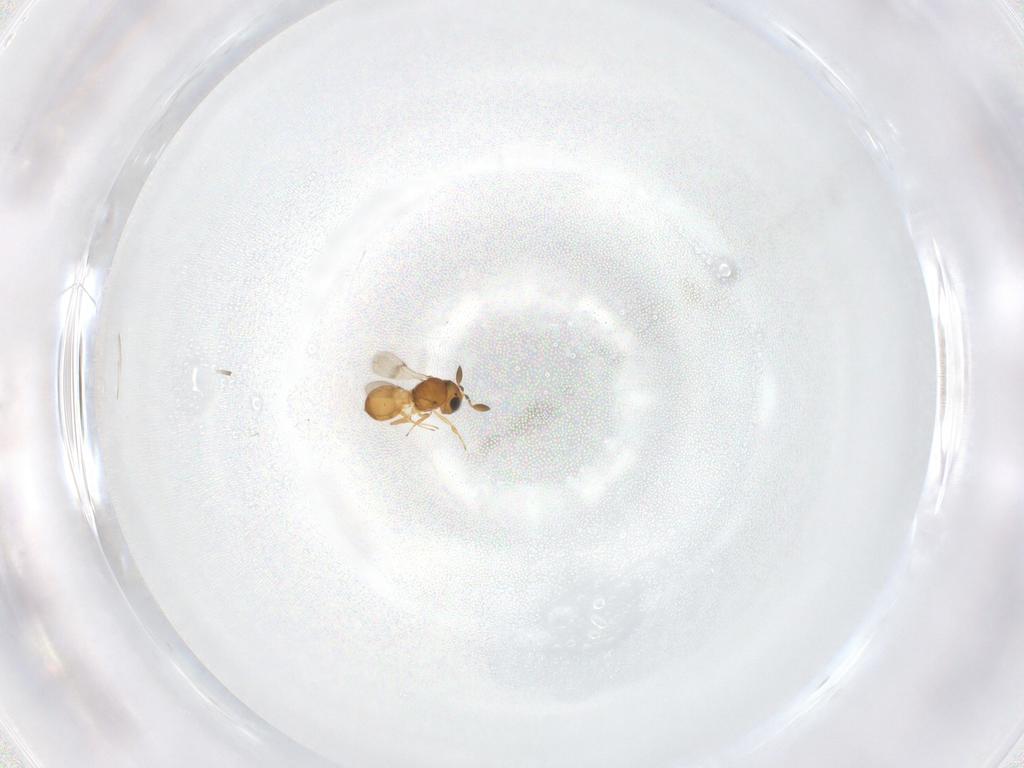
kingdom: Animalia
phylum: Arthropoda
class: Insecta
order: Hymenoptera
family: Scelionidae
